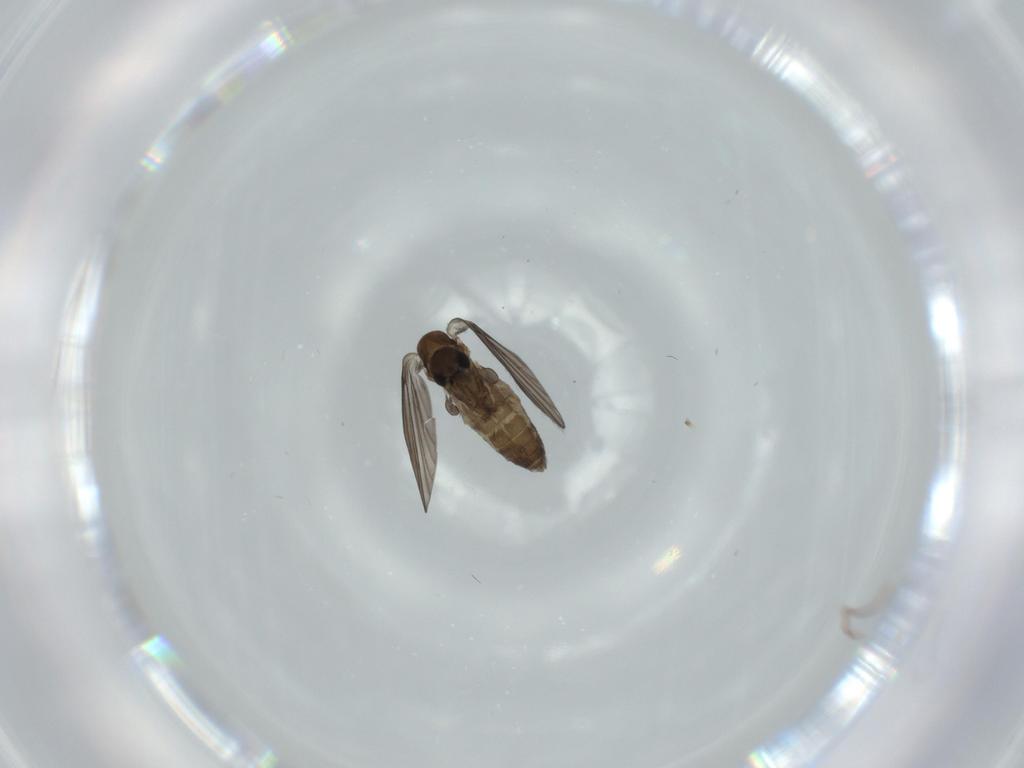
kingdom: Animalia
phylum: Arthropoda
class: Insecta
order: Diptera
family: Psychodidae
